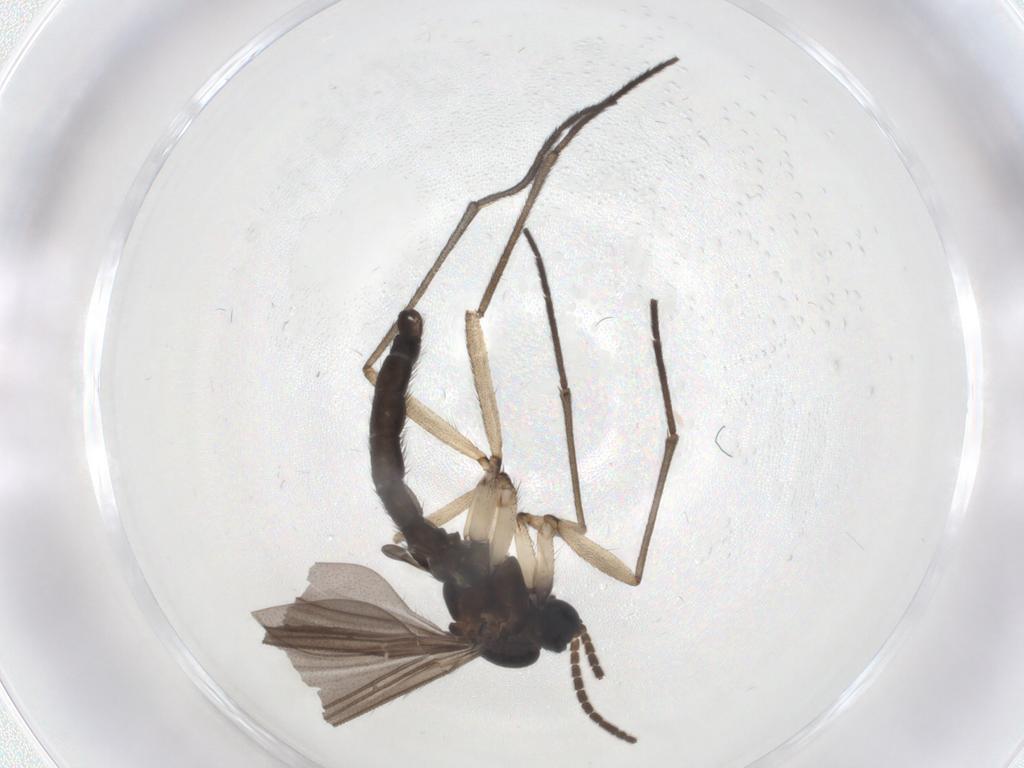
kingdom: Animalia
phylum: Arthropoda
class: Insecta
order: Diptera
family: Sciaridae
